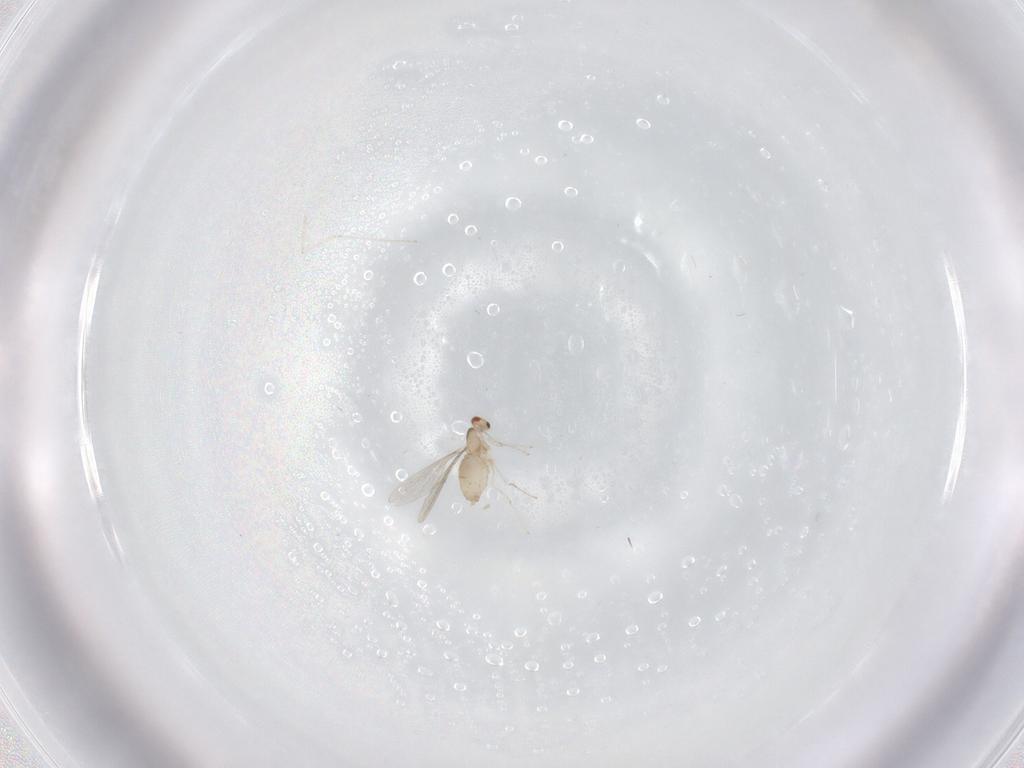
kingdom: Animalia
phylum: Arthropoda
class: Insecta
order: Diptera
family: Cecidomyiidae
